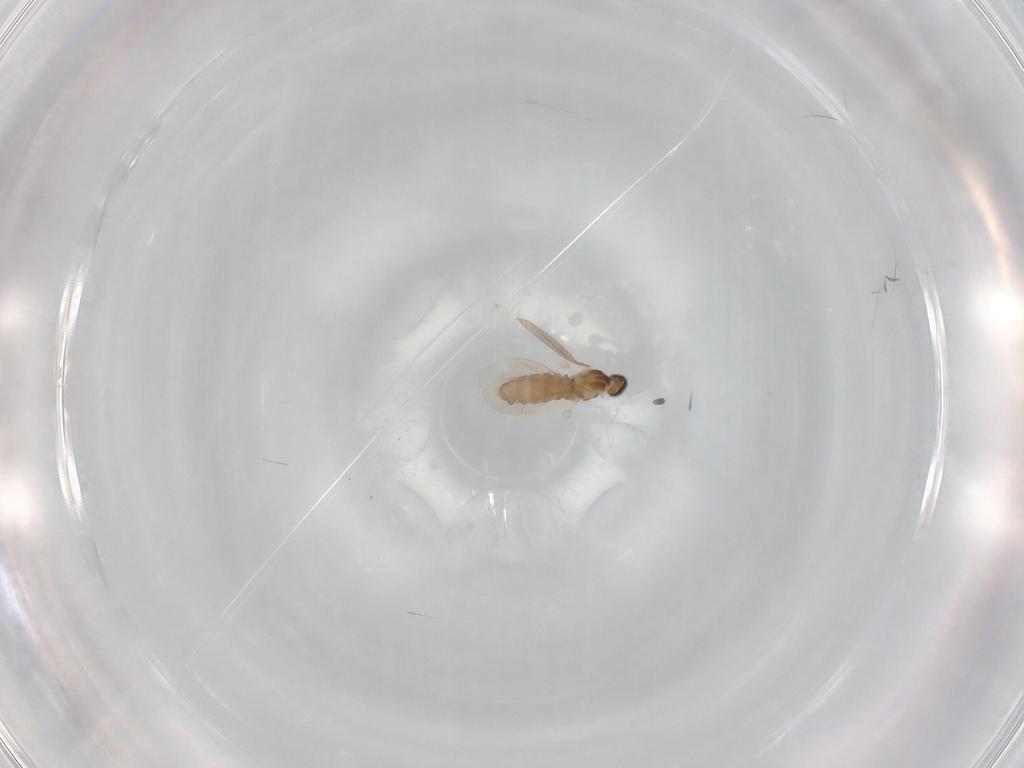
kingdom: Animalia
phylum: Arthropoda
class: Insecta
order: Diptera
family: Cecidomyiidae
